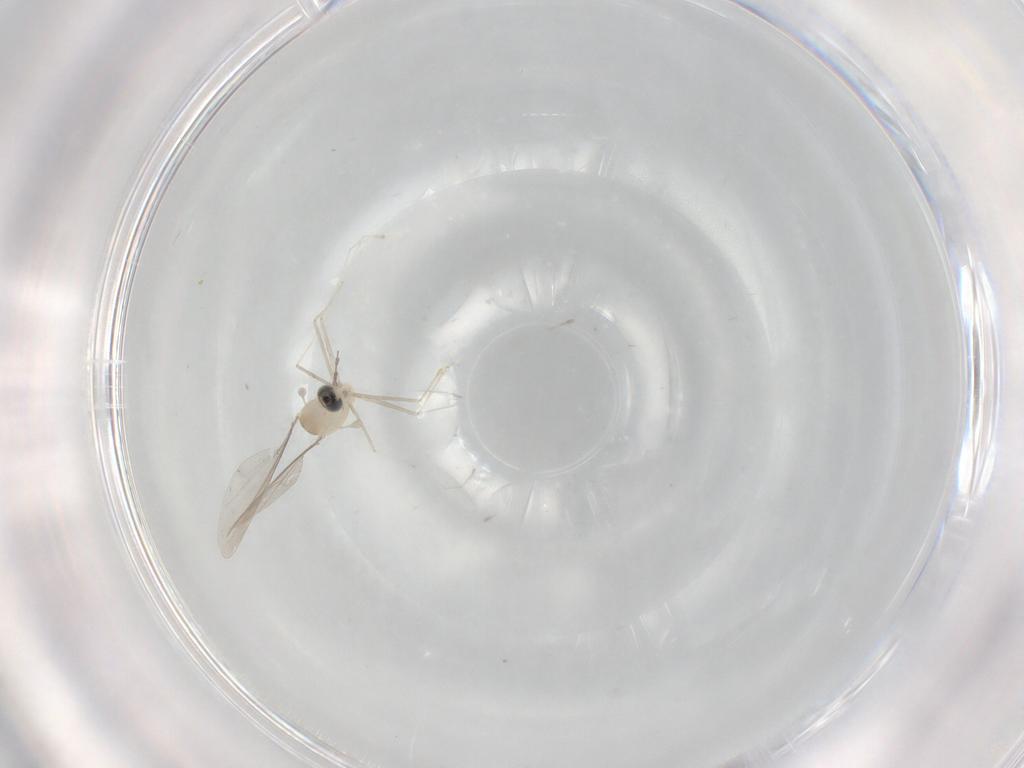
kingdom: Animalia
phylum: Arthropoda
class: Insecta
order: Diptera
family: Cecidomyiidae
